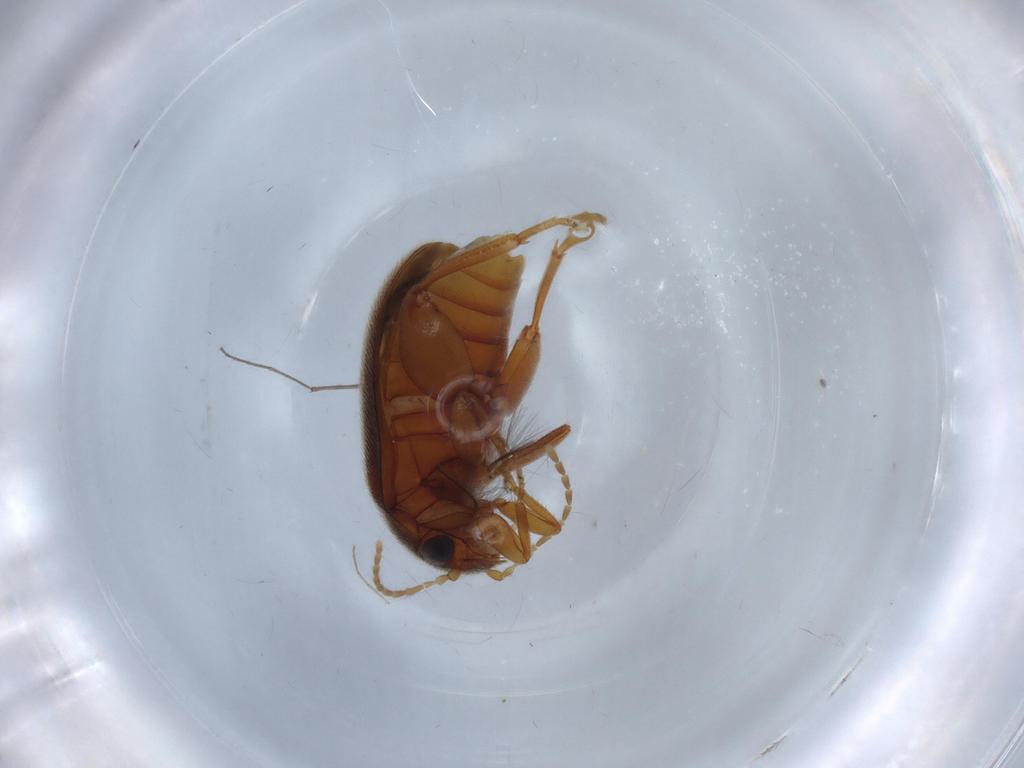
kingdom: Animalia
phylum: Arthropoda
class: Insecta
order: Coleoptera
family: Scirtidae
